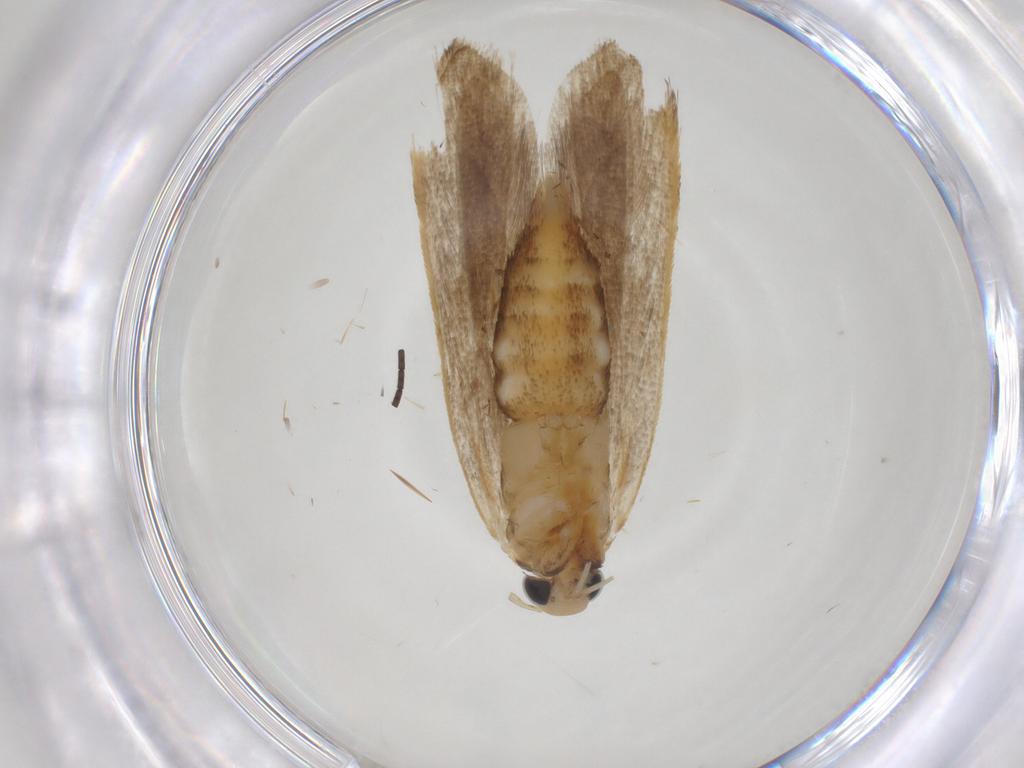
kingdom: Animalia
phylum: Arthropoda
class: Insecta
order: Lepidoptera
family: Gelechiidae
